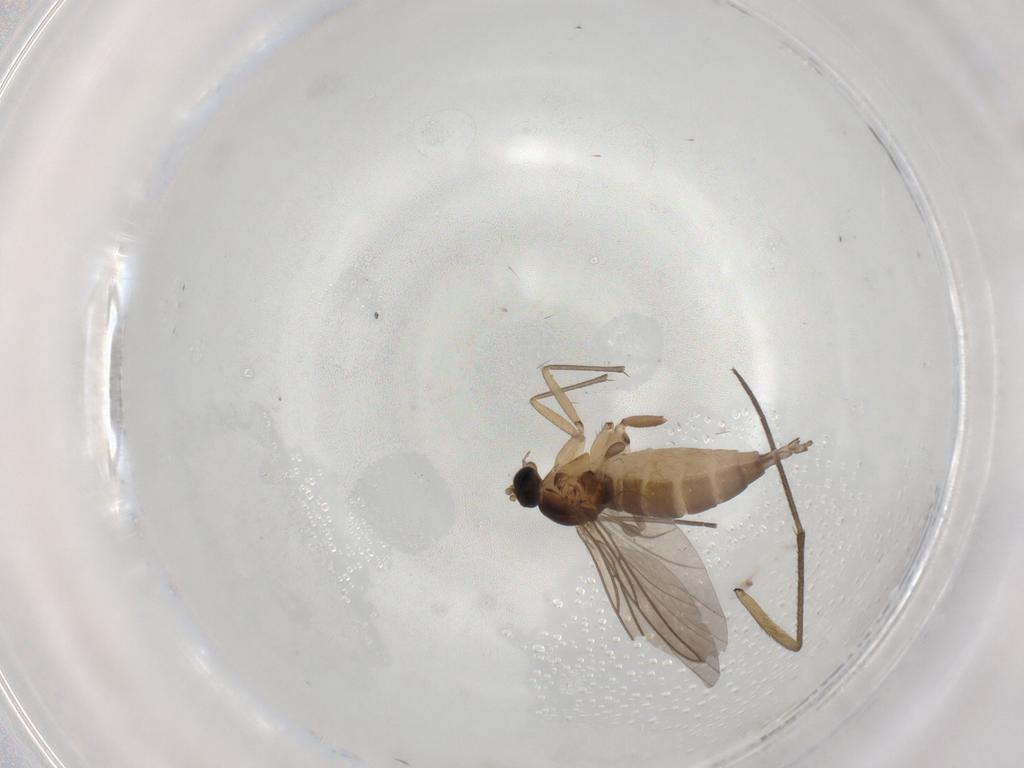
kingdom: Animalia
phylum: Arthropoda
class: Insecta
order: Diptera
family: Sciaridae
